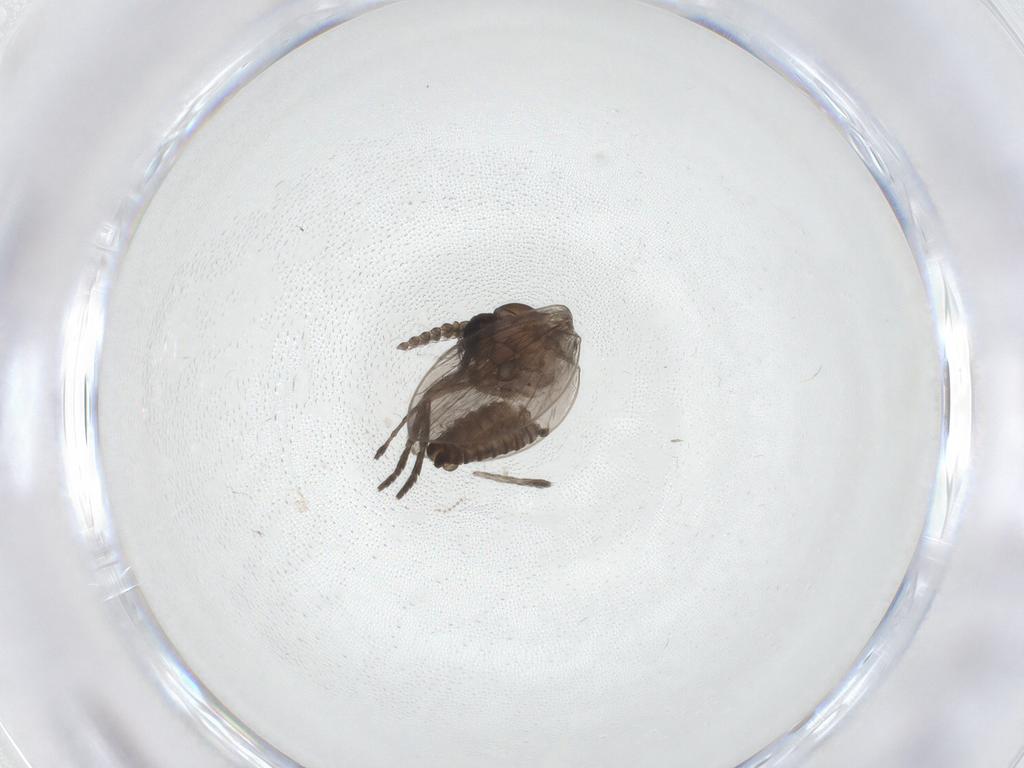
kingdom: Animalia
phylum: Arthropoda
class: Insecta
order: Diptera
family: Psychodidae
